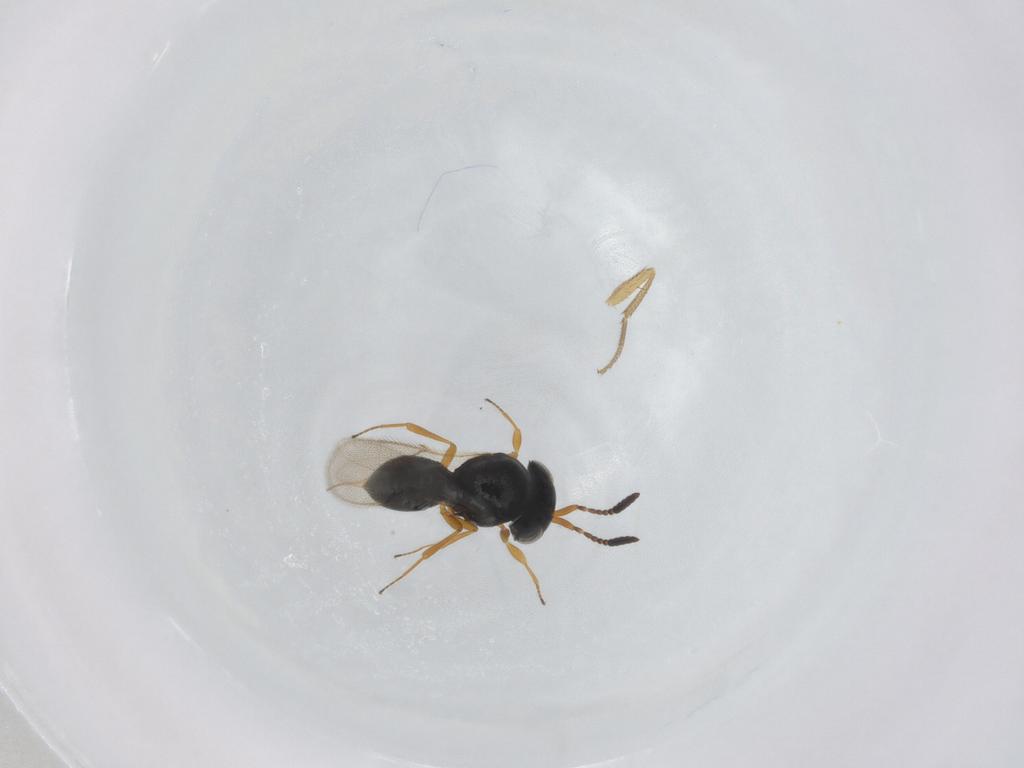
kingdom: Animalia
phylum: Arthropoda
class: Insecta
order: Hymenoptera
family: Scelionidae
